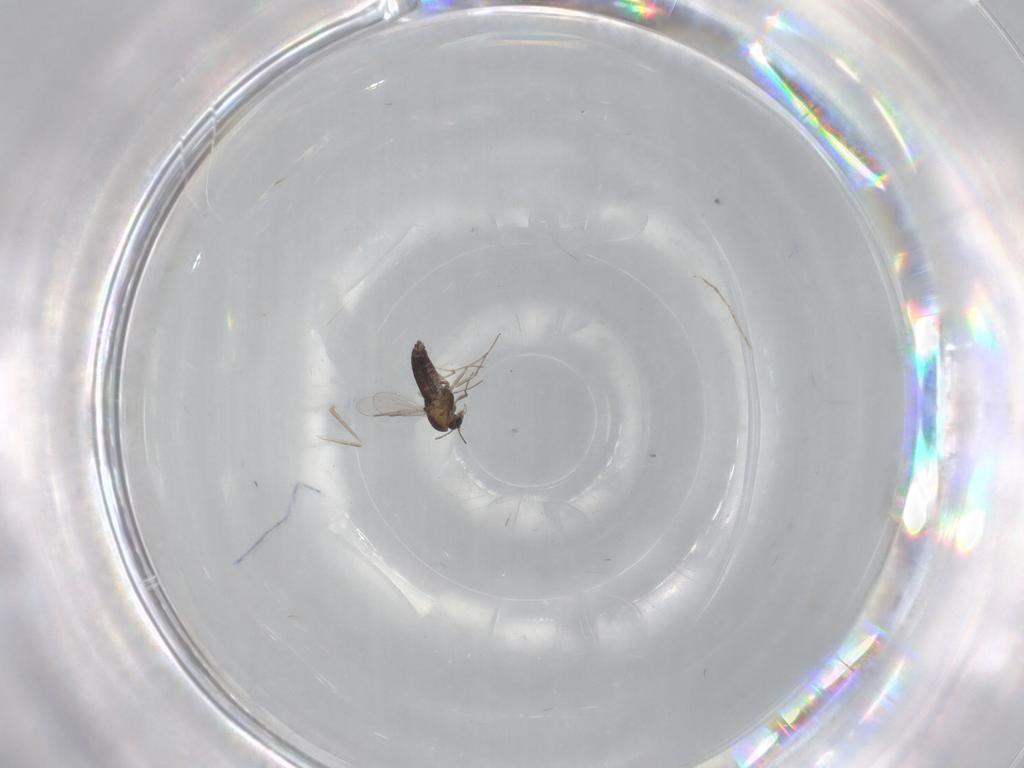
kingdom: Animalia
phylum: Arthropoda
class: Insecta
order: Diptera
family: Chironomidae
